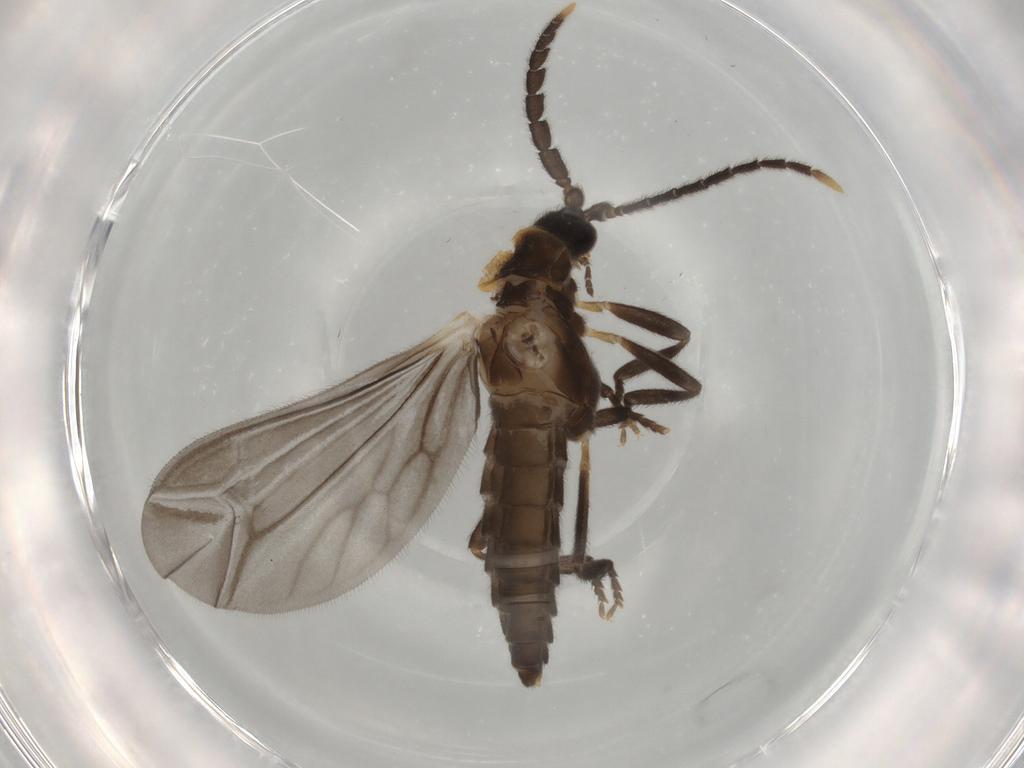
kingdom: Animalia
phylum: Arthropoda
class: Insecta
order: Coleoptera
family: Lycidae
